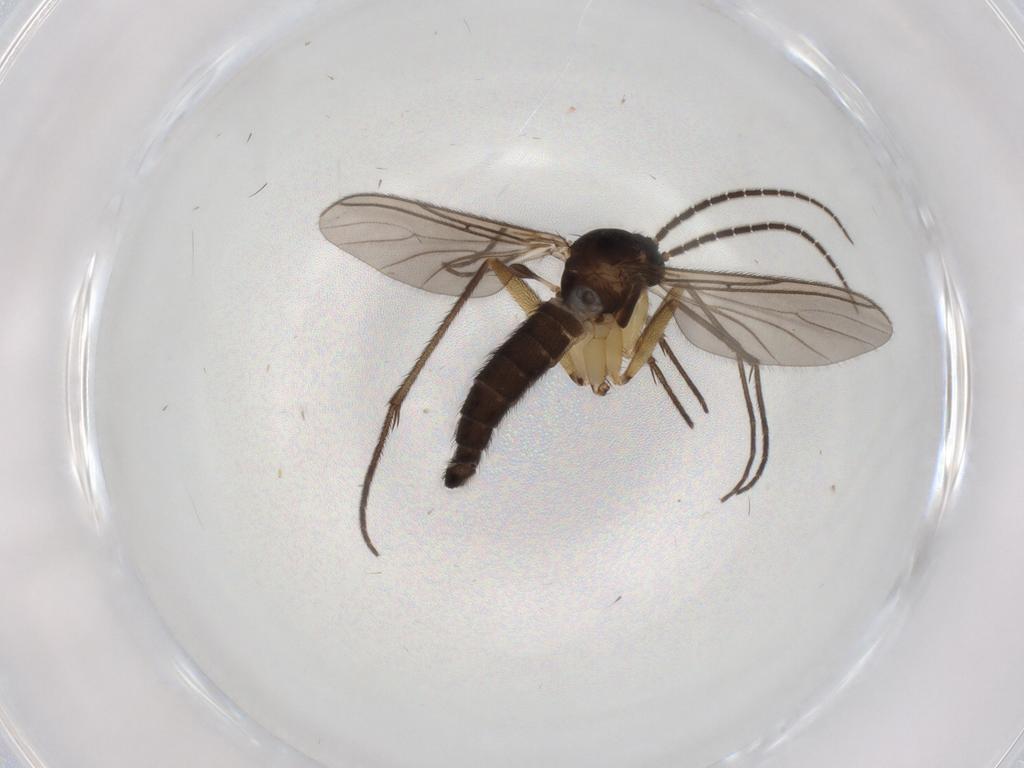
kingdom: Animalia
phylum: Arthropoda
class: Insecta
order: Diptera
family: Sciaridae
